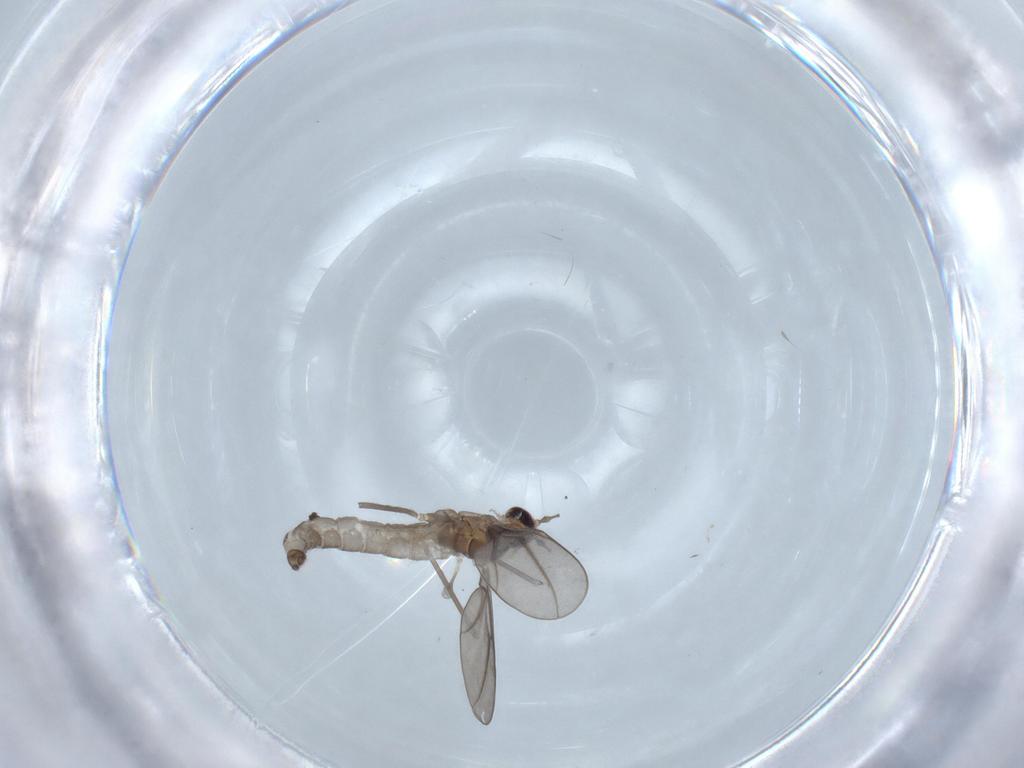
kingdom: Animalia
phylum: Arthropoda
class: Insecta
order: Diptera
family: Cecidomyiidae
